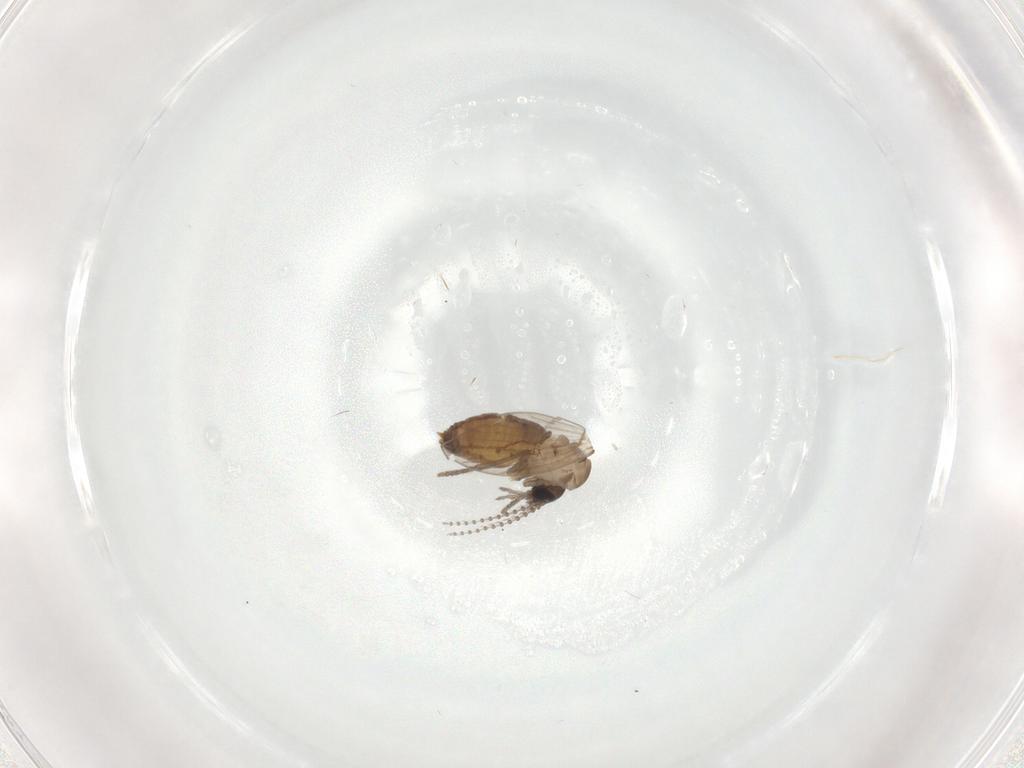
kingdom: Animalia
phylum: Arthropoda
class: Insecta
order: Diptera
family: Psychodidae
